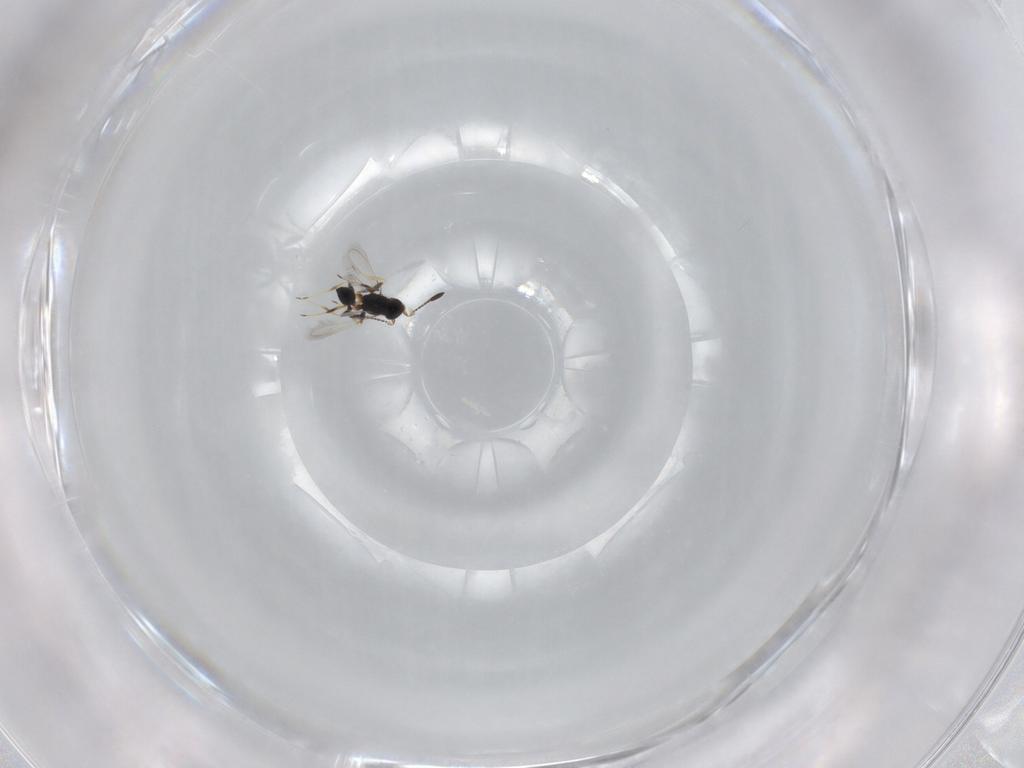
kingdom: Animalia
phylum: Arthropoda
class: Insecta
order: Hymenoptera
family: Mymaridae
